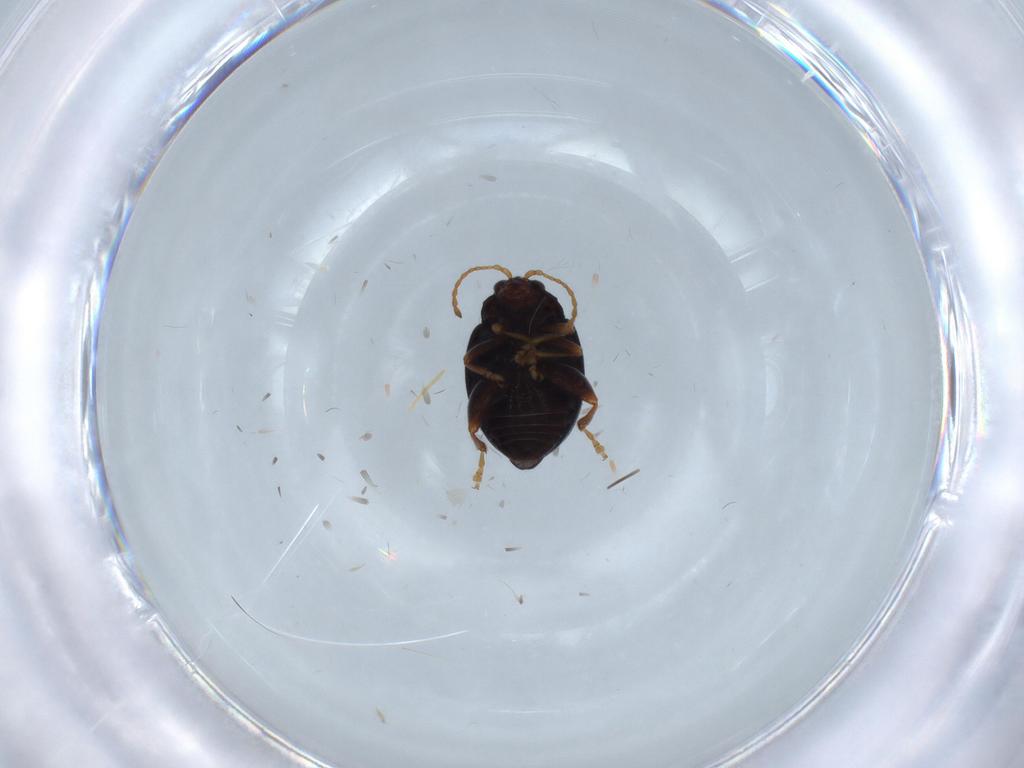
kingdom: Animalia
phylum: Arthropoda
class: Insecta
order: Coleoptera
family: Chrysomelidae
